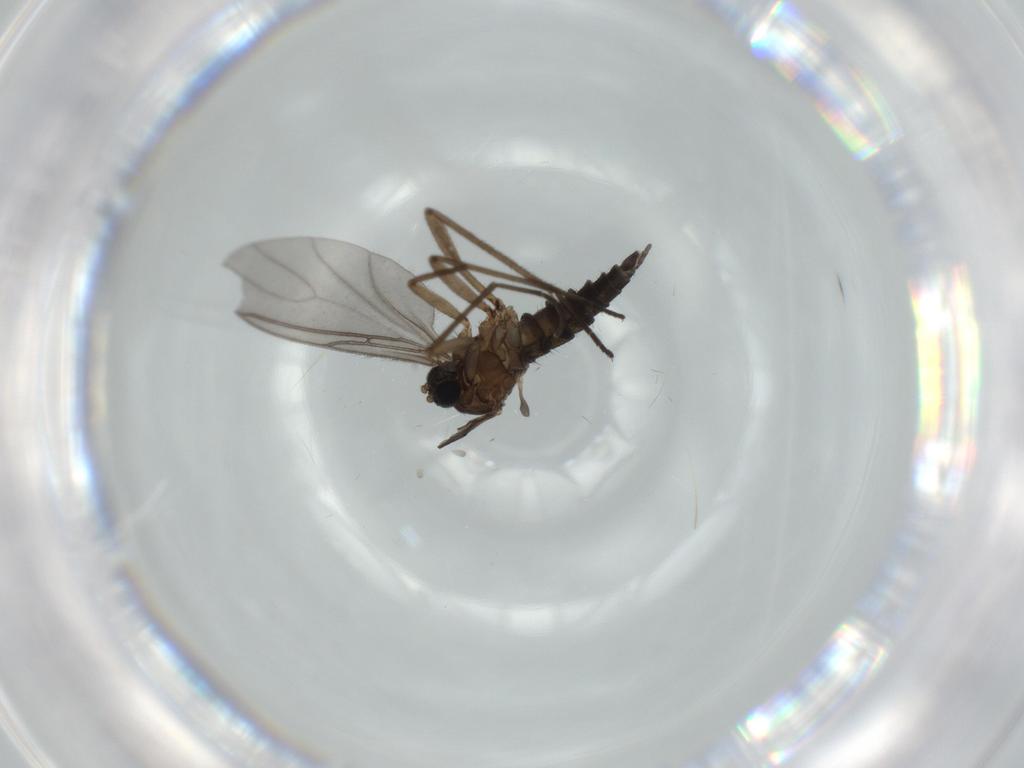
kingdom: Animalia
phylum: Arthropoda
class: Insecta
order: Diptera
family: Sciaridae
